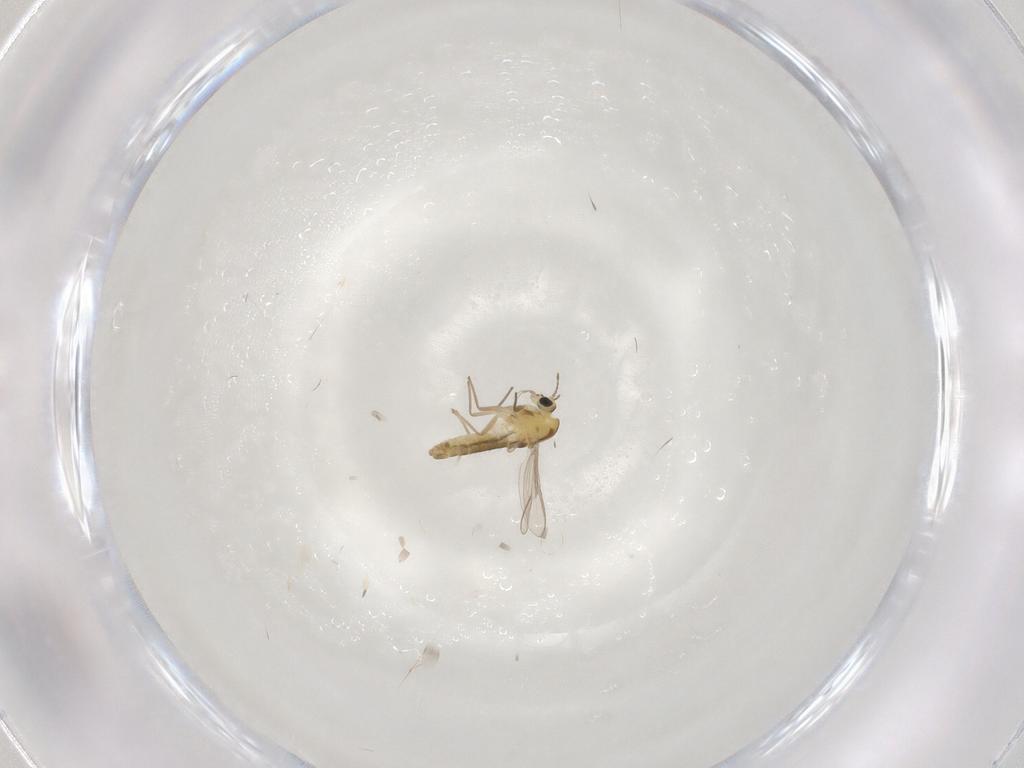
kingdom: Animalia
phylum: Arthropoda
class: Insecta
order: Diptera
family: Chironomidae
